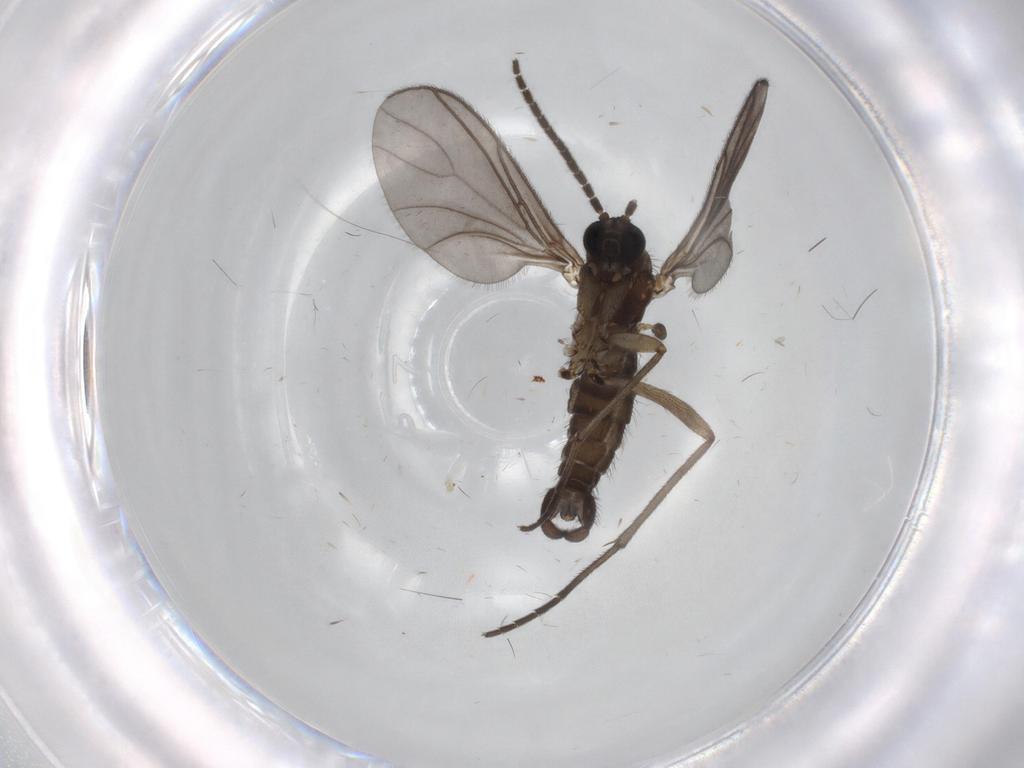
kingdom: Animalia
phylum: Arthropoda
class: Insecta
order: Diptera
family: Sciaridae
